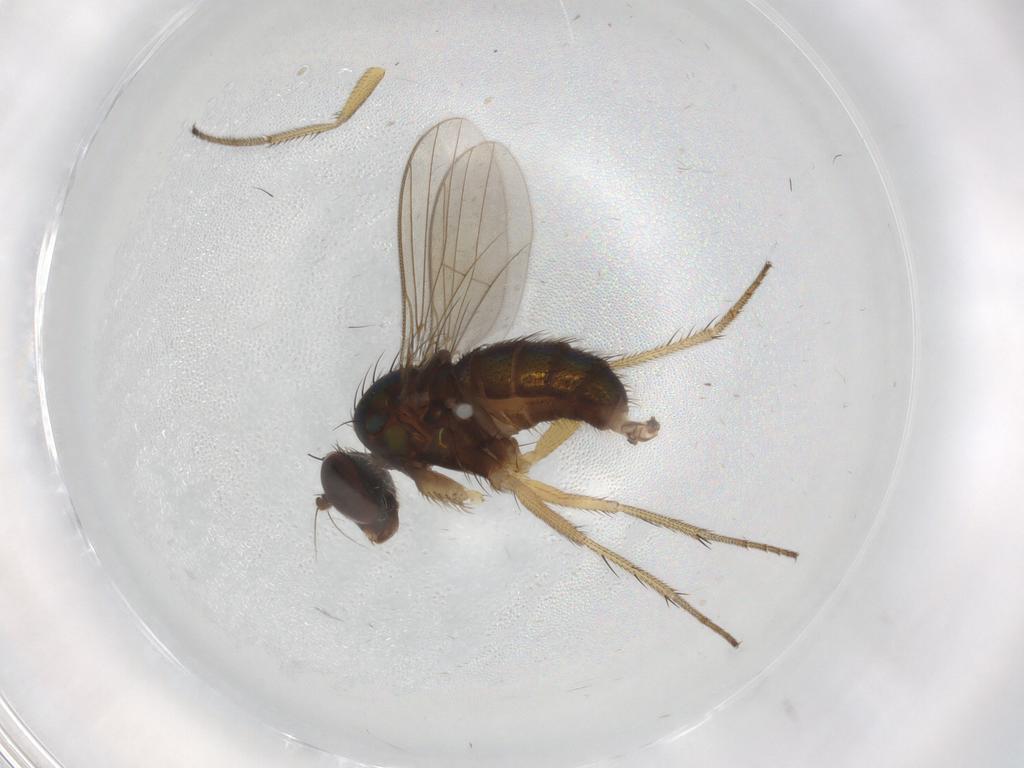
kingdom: Animalia
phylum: Arthropoda
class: Insecta
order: Diptera
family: Dolichopodidae
